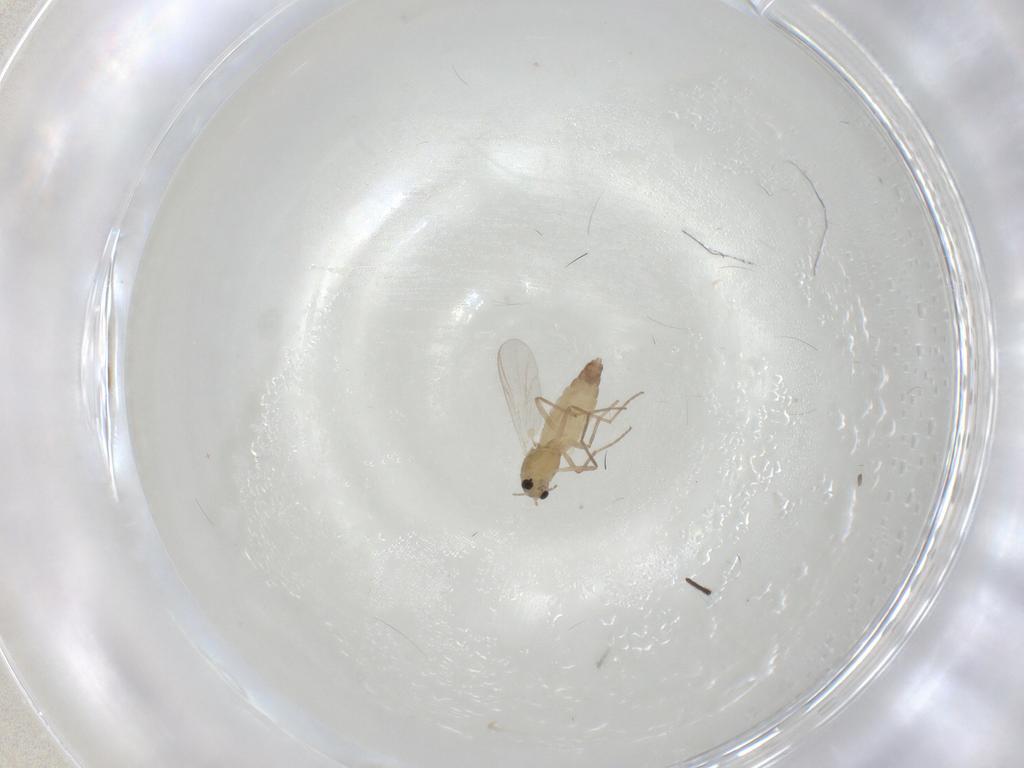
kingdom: Animalia
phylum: Arthropoda
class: Insecta
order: Diptera
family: Chironomidae
